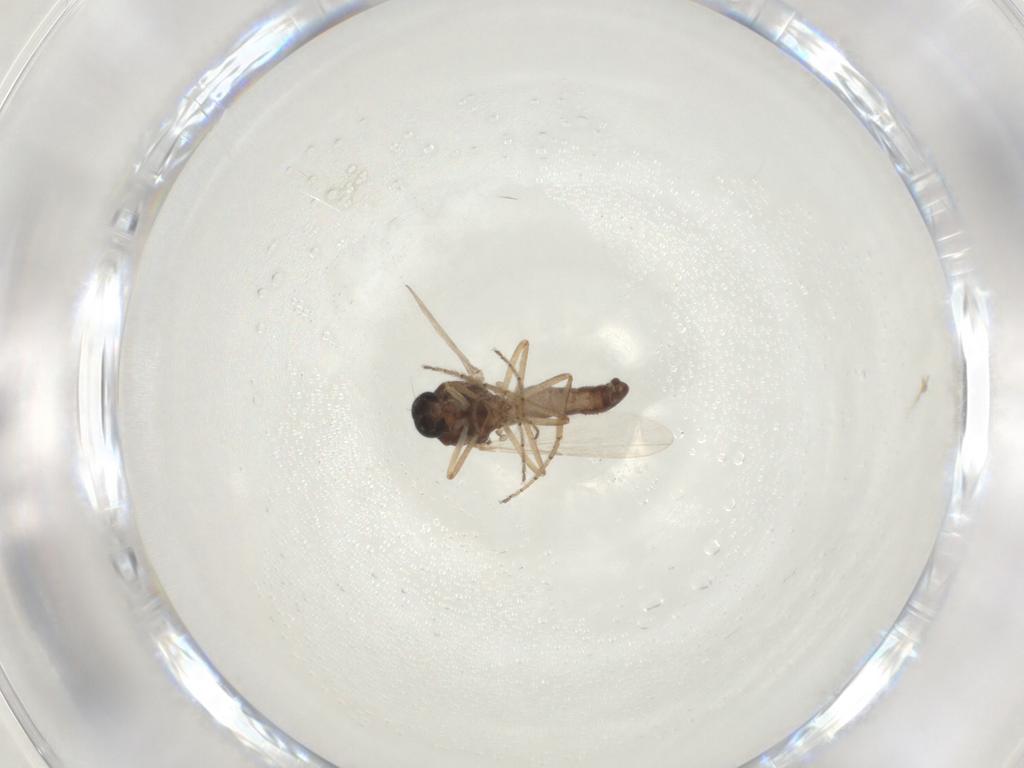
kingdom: Animalia
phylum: Arthropoda
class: Insecta
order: Diptera
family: Ceratopogonidae
